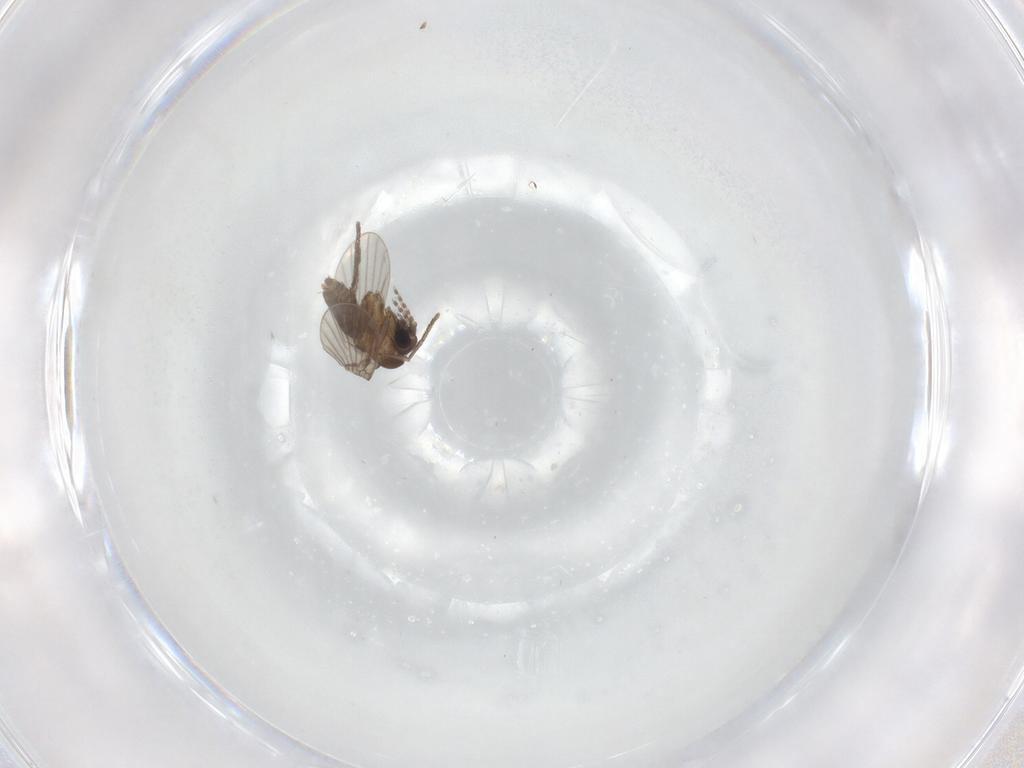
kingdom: Animalia
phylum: Arthropoda
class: Insecta
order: Diptera
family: Psychodidae
